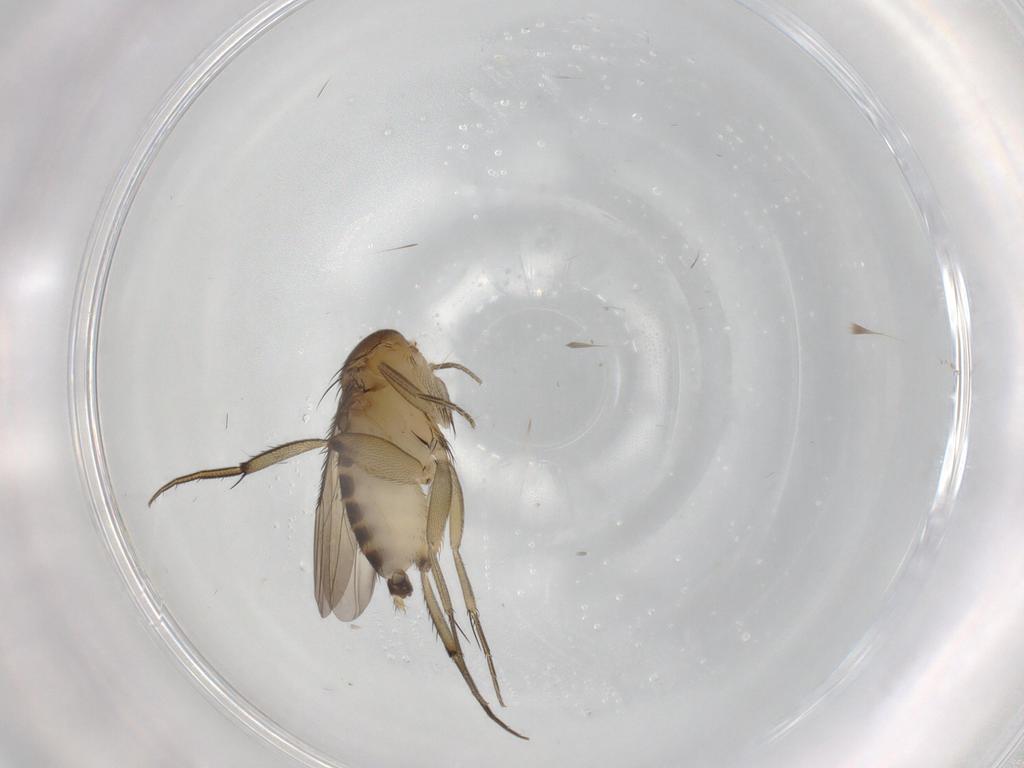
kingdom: Animalia
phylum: Arthropoda
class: Insecta
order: Diptera
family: Phoridae
